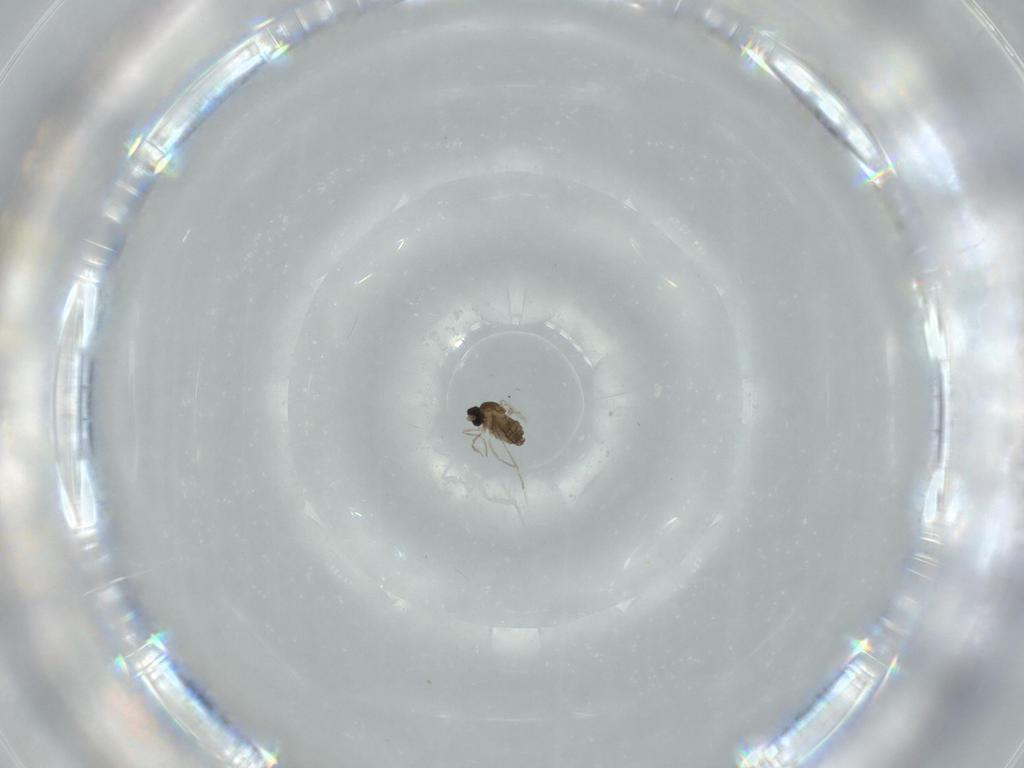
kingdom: Animalia
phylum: Arthropoda
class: Insecta
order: Diptera
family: Cecidomyiidae
